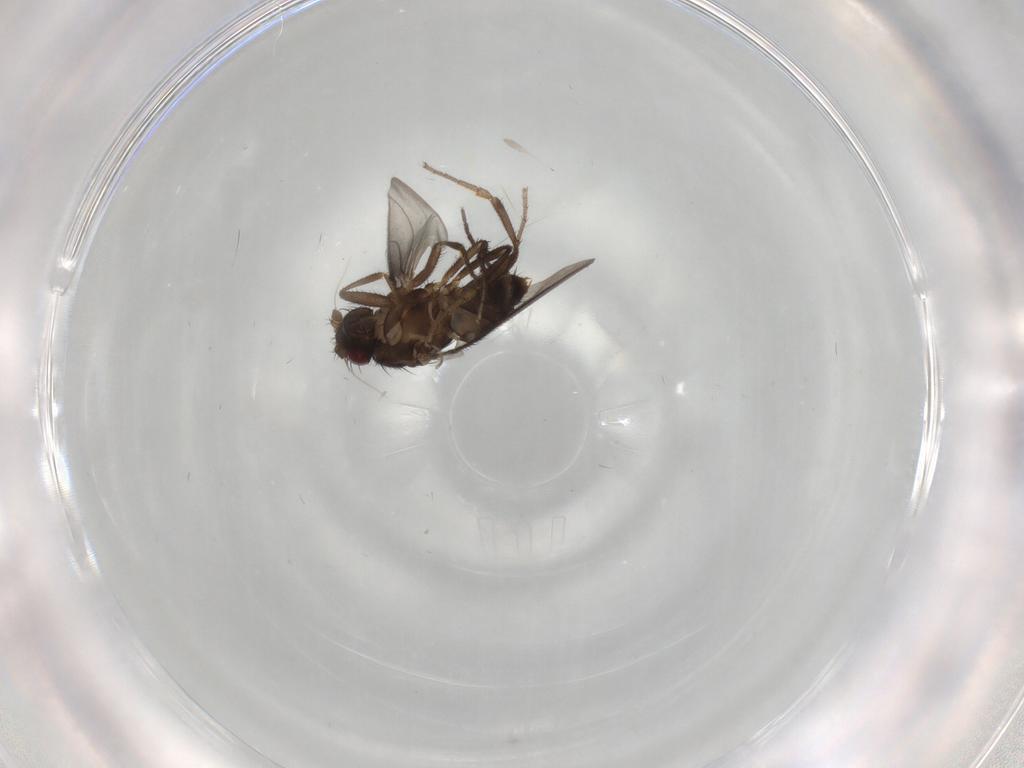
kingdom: Animalia
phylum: Arthropoda
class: Insecta
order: Diptera
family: Sphaeroceridae
